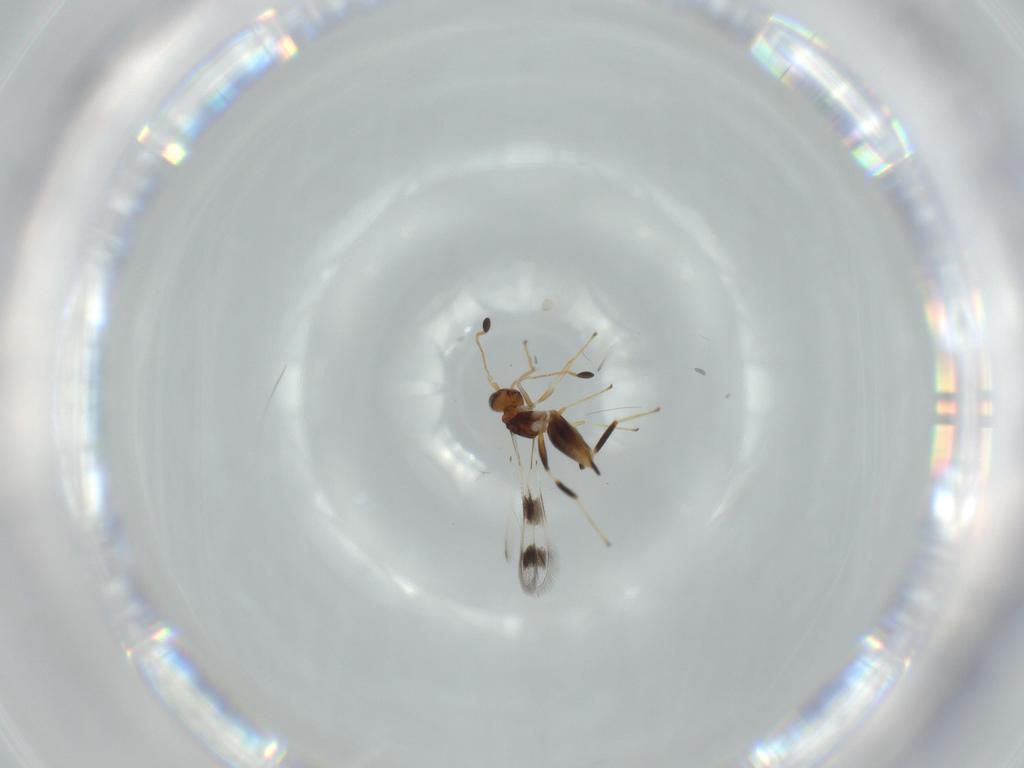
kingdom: Animalia
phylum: Arthropoda
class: Insecta
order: Hymenoptera
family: Mymaridae
